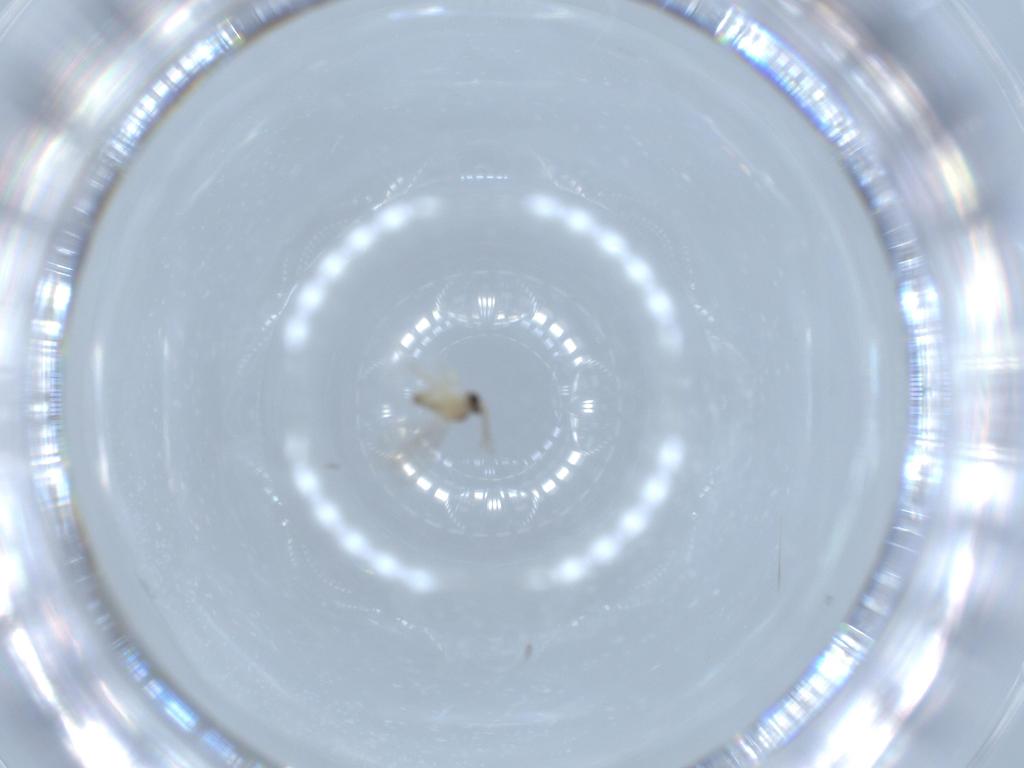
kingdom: Animalia
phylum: Arthropoda
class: Insecta
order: Diptera
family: Cecidomyiidae
